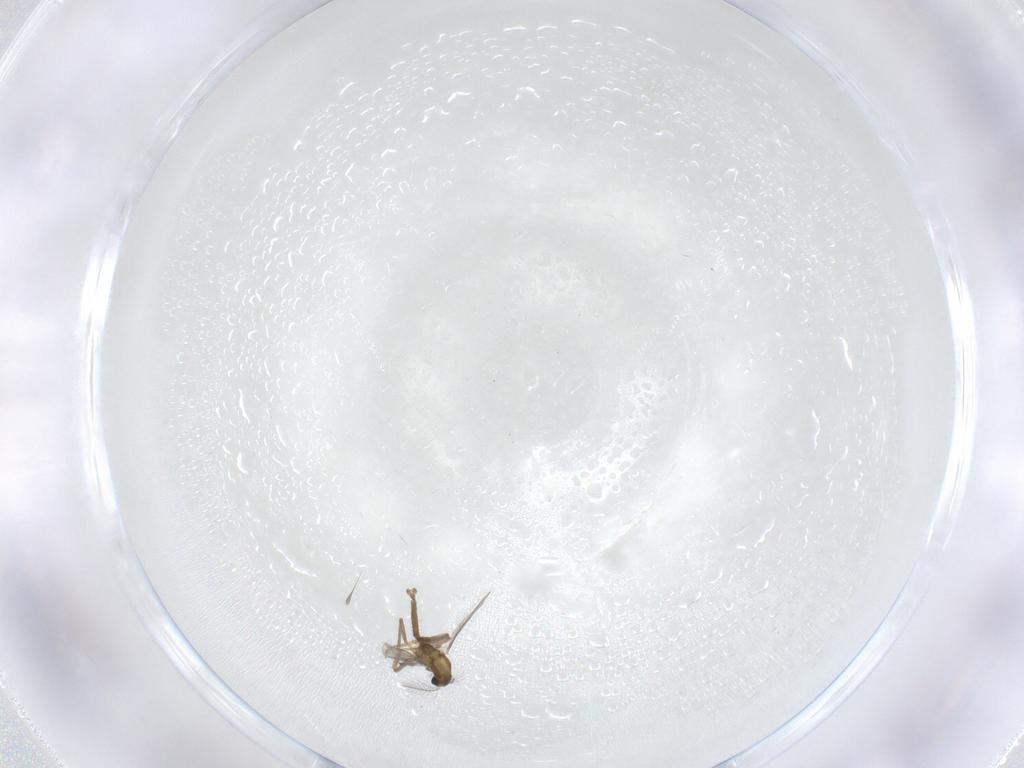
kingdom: Animalia
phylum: Arthropoda
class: Insecta
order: Diptera
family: Chironomidae
